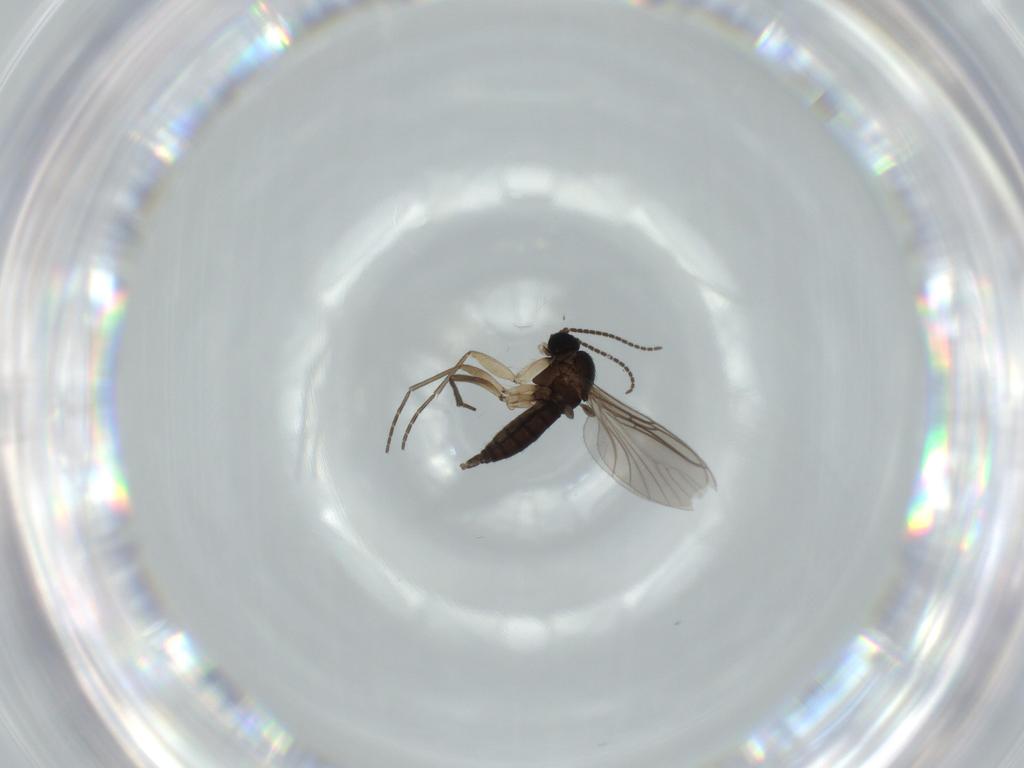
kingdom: Animalia
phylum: Arthropoda
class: Insecta
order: Diptera
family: Sciaridae
